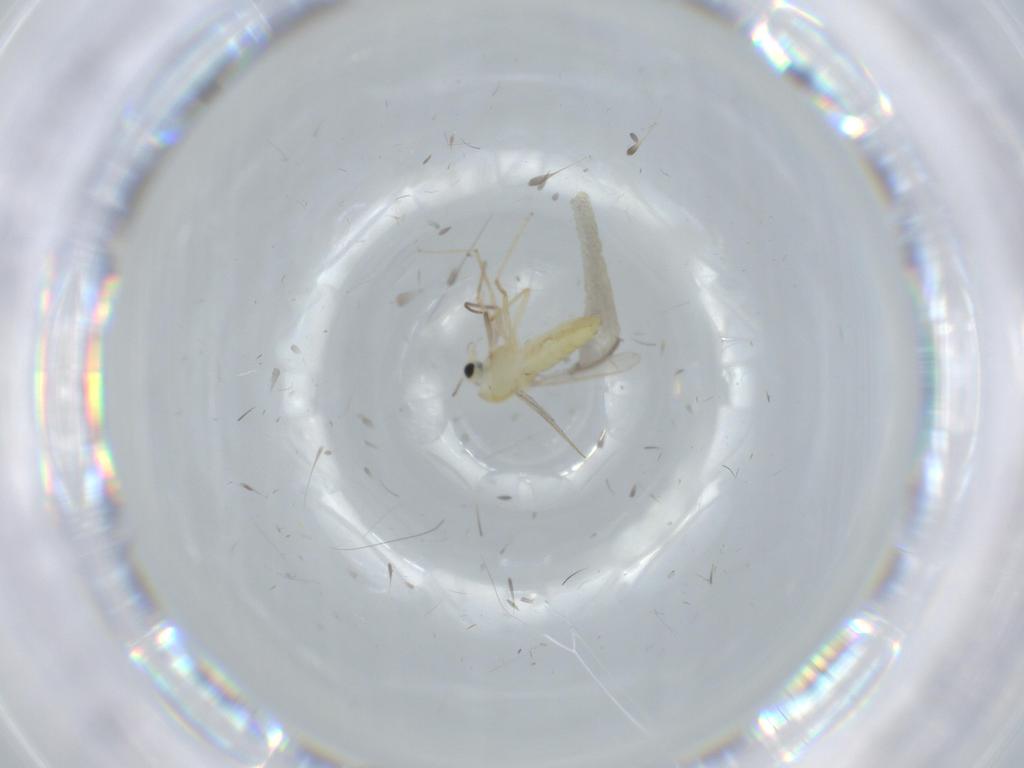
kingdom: Animalia
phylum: Arthropoda
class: Insecta
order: Diptera
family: Chironomidae
